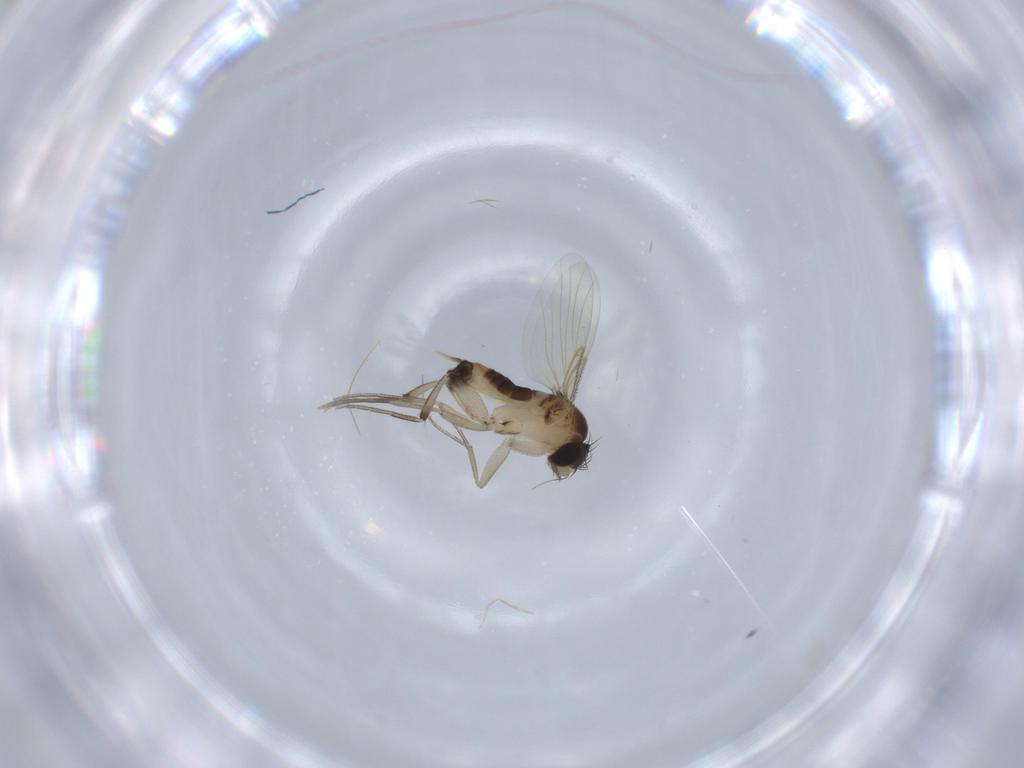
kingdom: Animalia
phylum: Arthropoda
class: Insecta
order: Diptera
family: Phoridae
